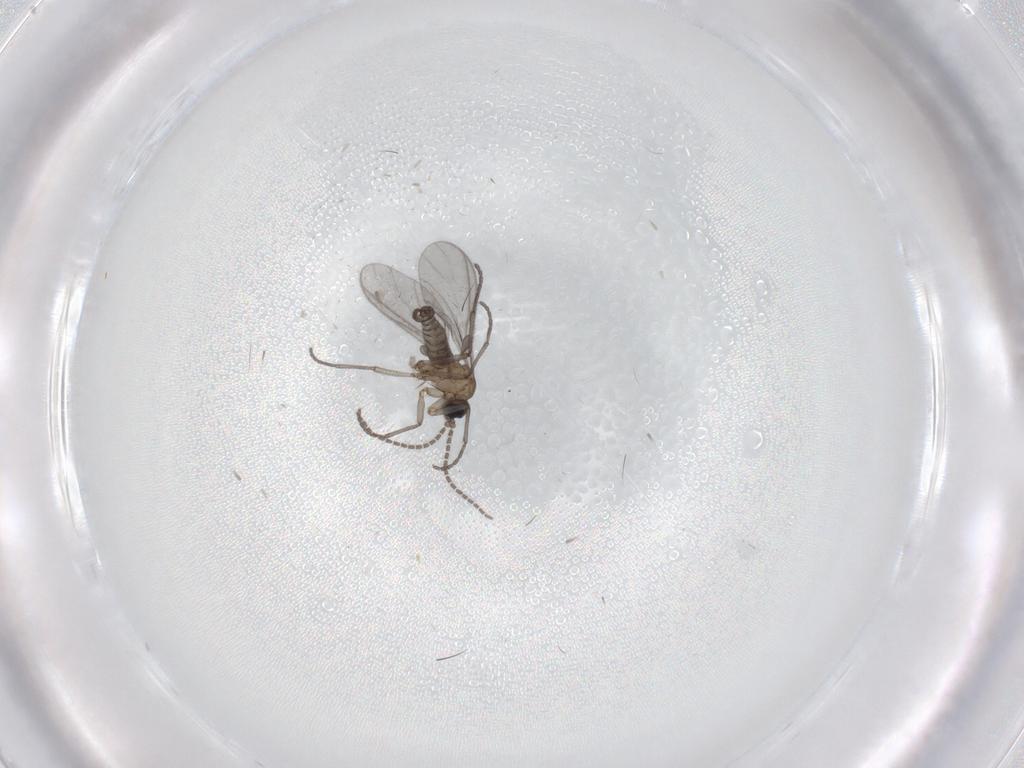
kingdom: Animalia
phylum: Arthropoda
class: Insecta
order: Diptera
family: Sciaridae
